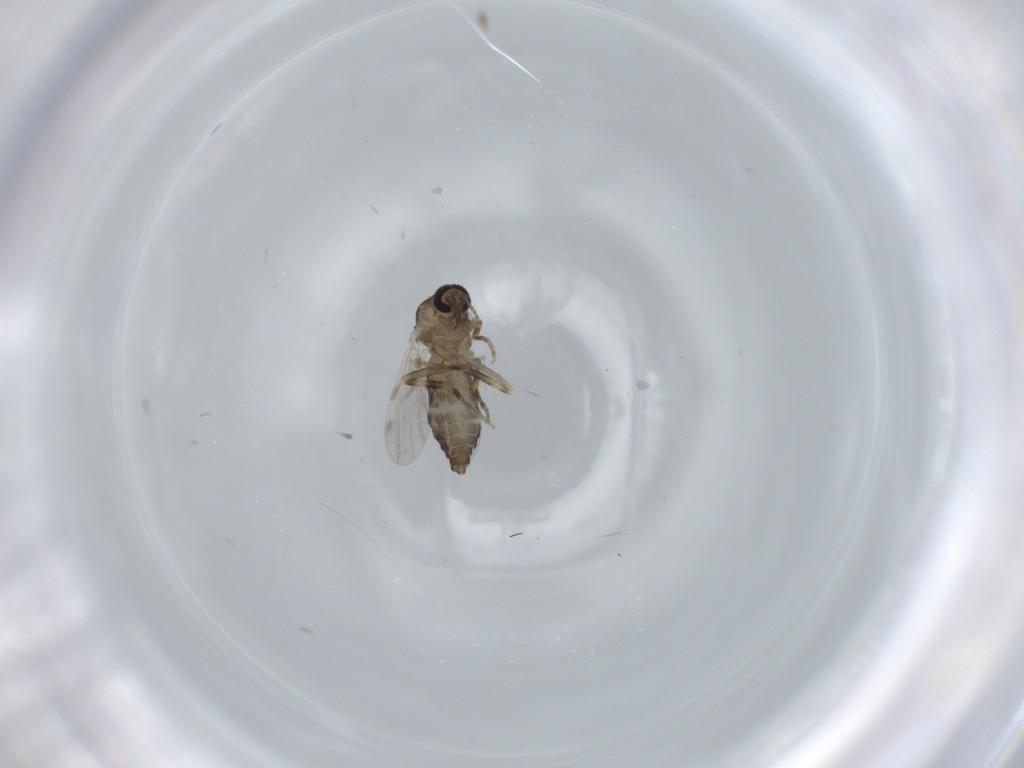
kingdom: Animalia
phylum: Arthropoda
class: Insecta
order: Diptera
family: Ceratopogonidae
